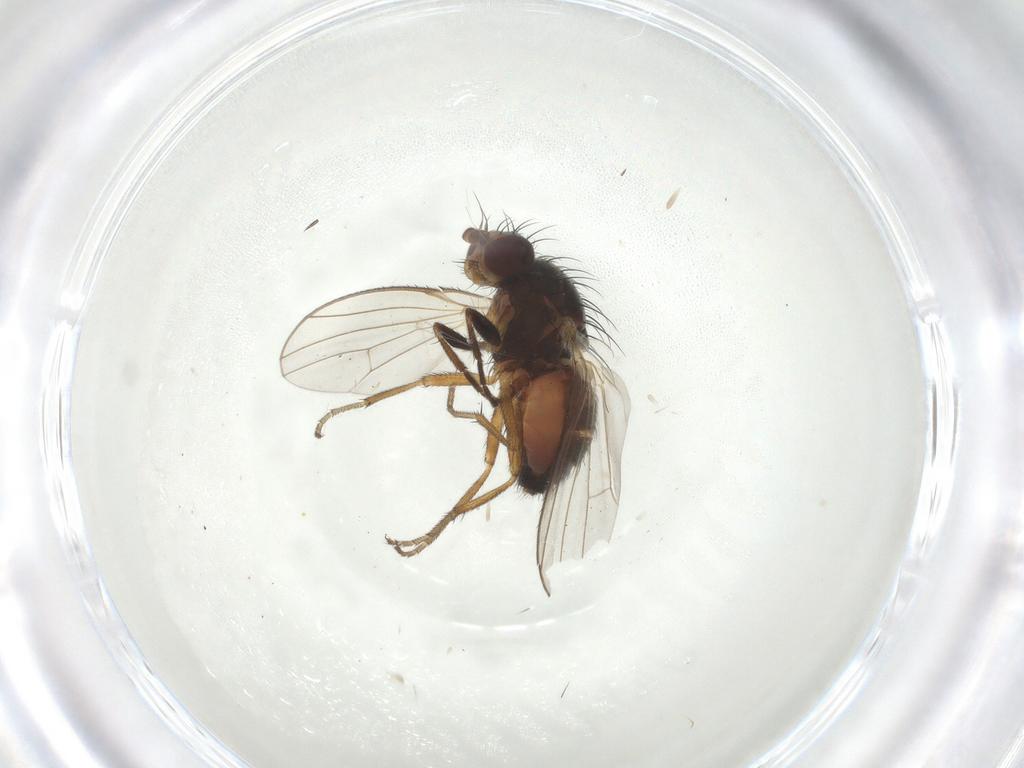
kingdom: Animalia
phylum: Arthropoda
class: Insecta
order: Diptera
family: Heleomyzidae
